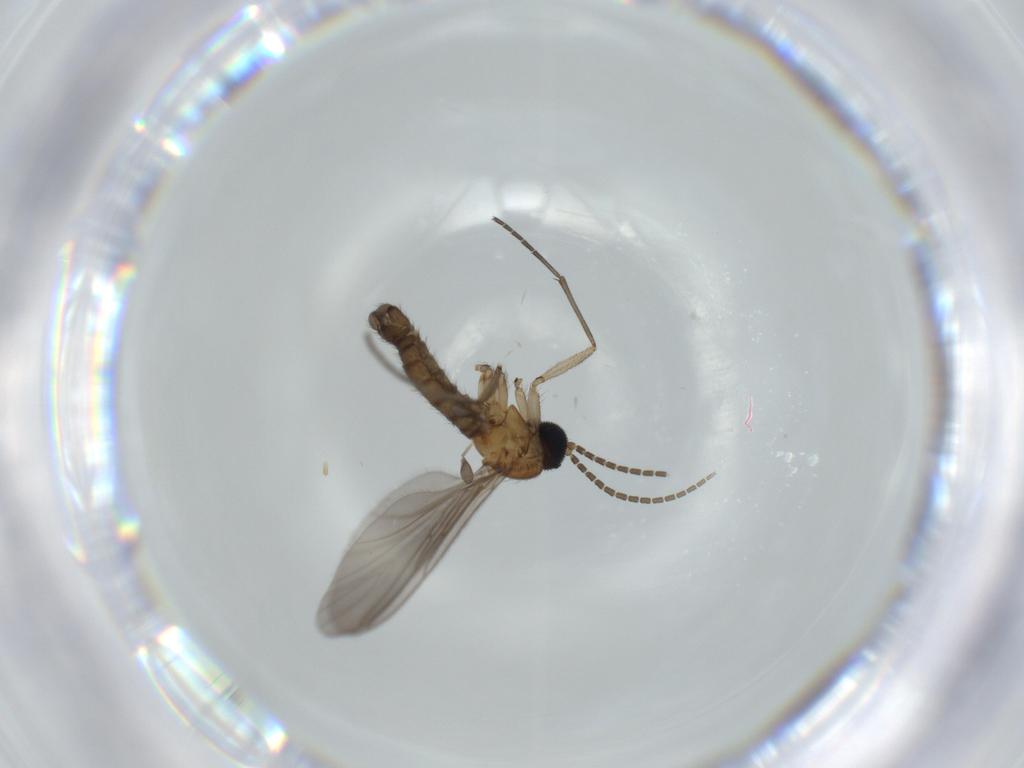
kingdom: Animalia
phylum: Arthropoda
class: Insecta
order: Diptera
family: Sciaridae
